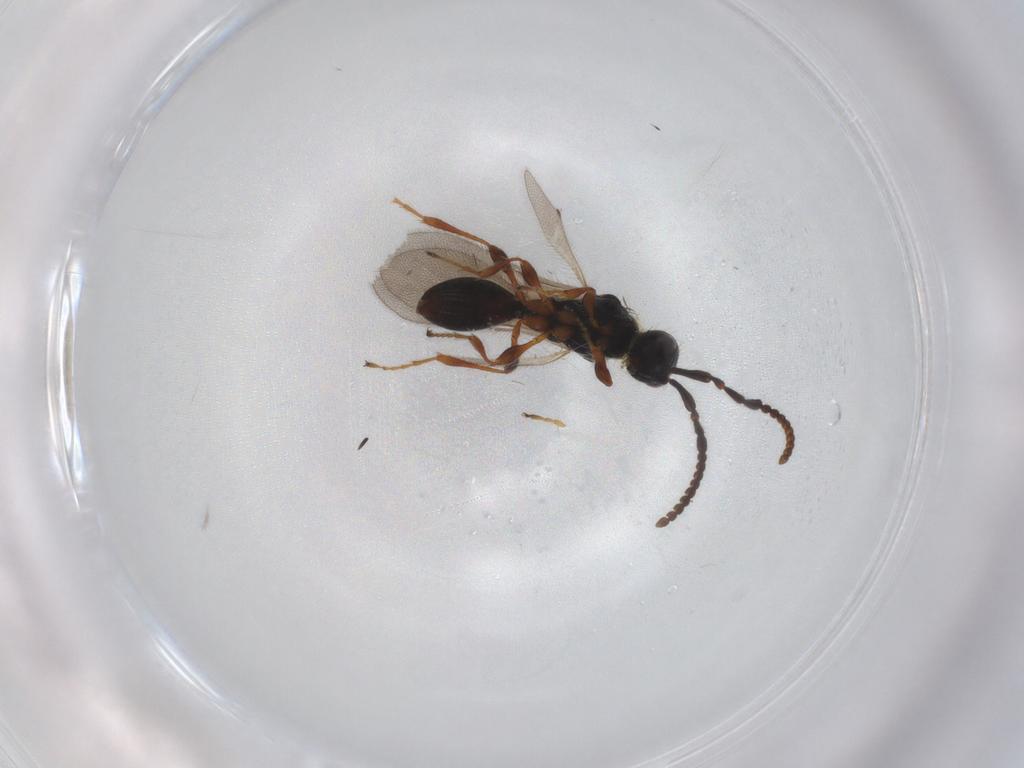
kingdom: Animalia
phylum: Arthropoda
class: Insecta
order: Hymenoptera
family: Diapriidae
